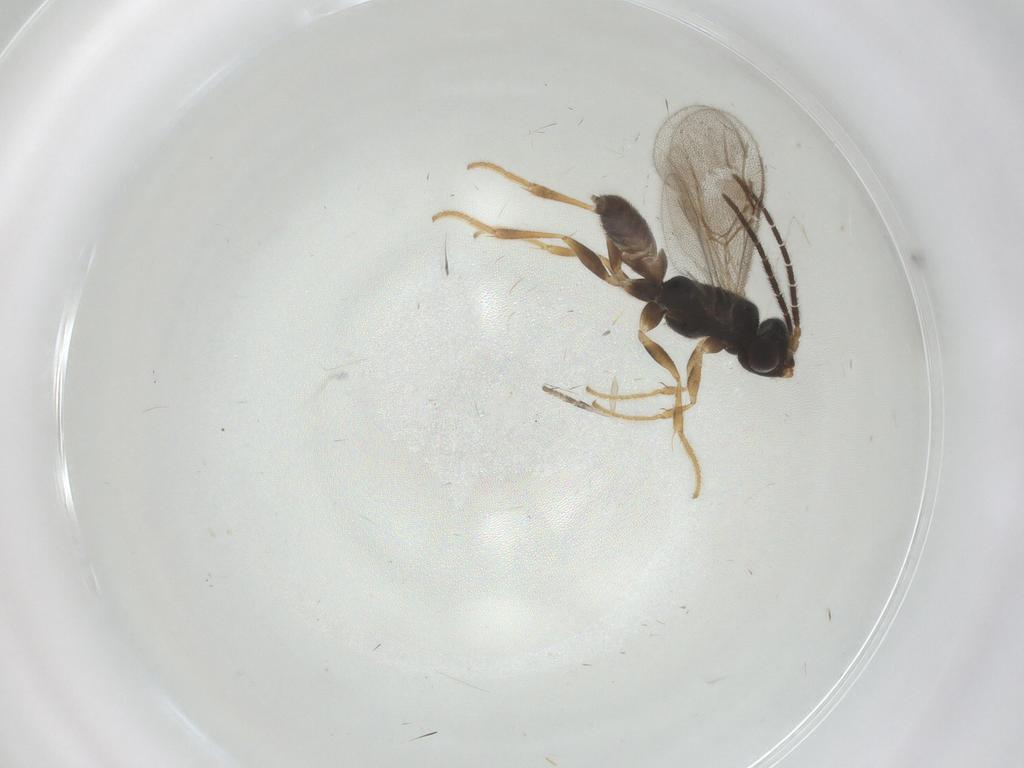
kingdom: Animalia
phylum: Arthropoda
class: Insecta
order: Hymenoptera
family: Dryinidae
